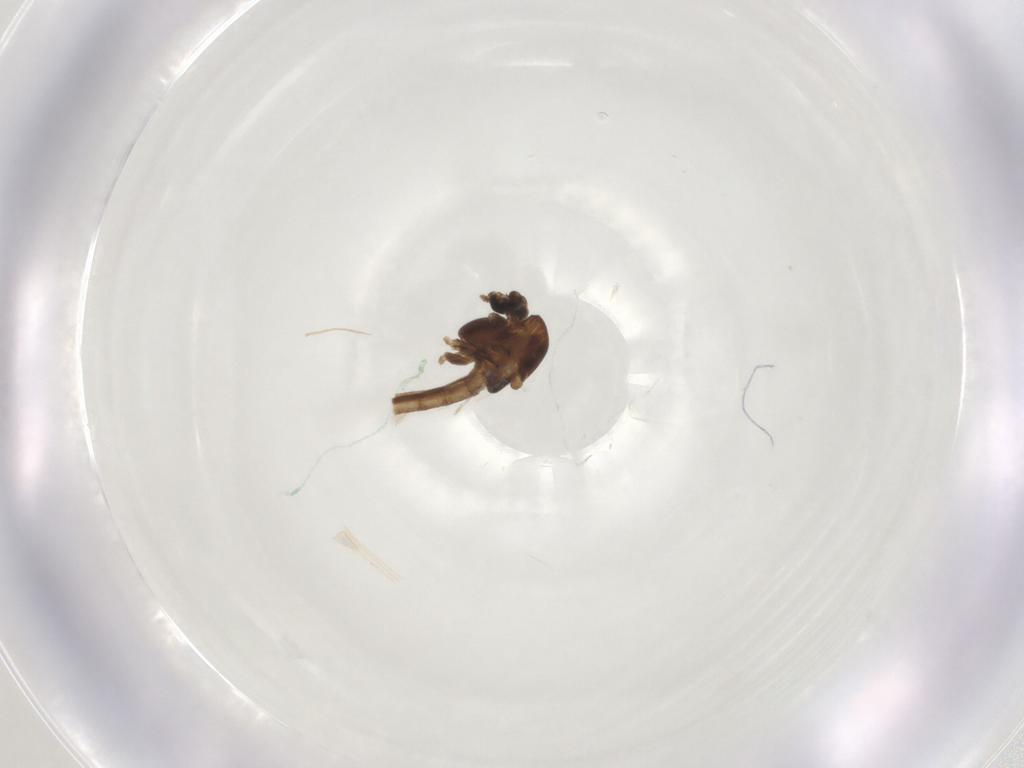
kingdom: Animalia
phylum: Arthropoda
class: Insecta
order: Diptera
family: Chironomidae
